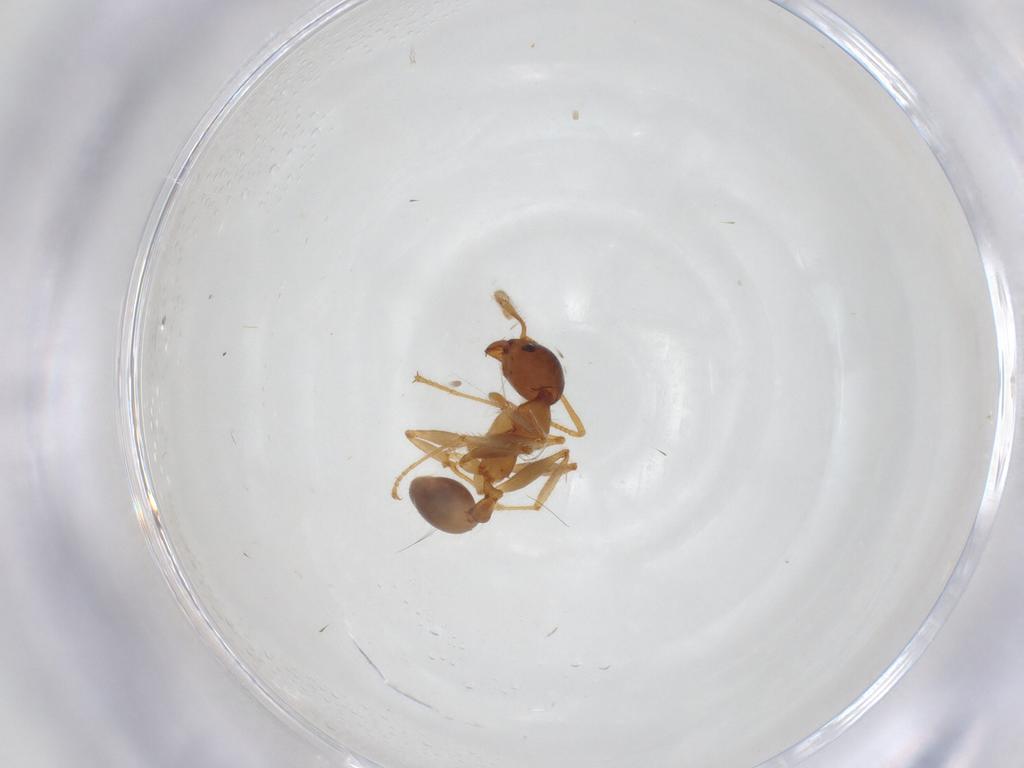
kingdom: Animalia
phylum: Arthropoda
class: Insecta
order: Hymenoptera
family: Formicidae
